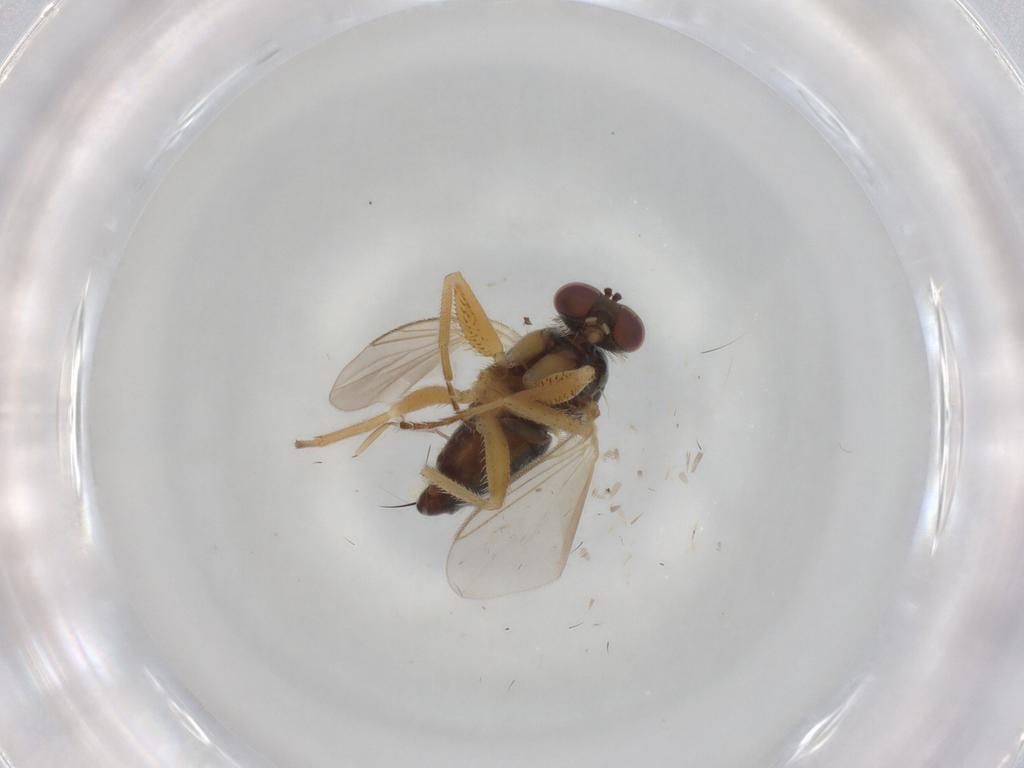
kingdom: Animalia
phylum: Arthropoda
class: Insecta
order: Diptera
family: Dolichopodidae
